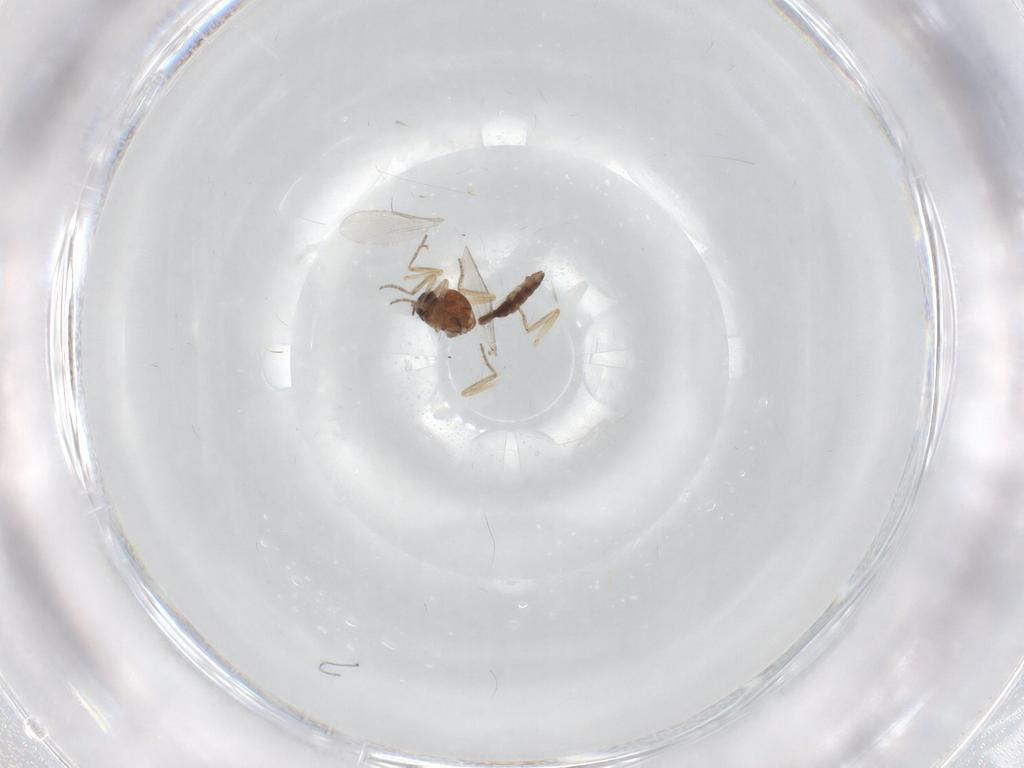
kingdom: Animalia
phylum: Arthropoda
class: Insecta
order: Diptera
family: Ceratopogonidae
